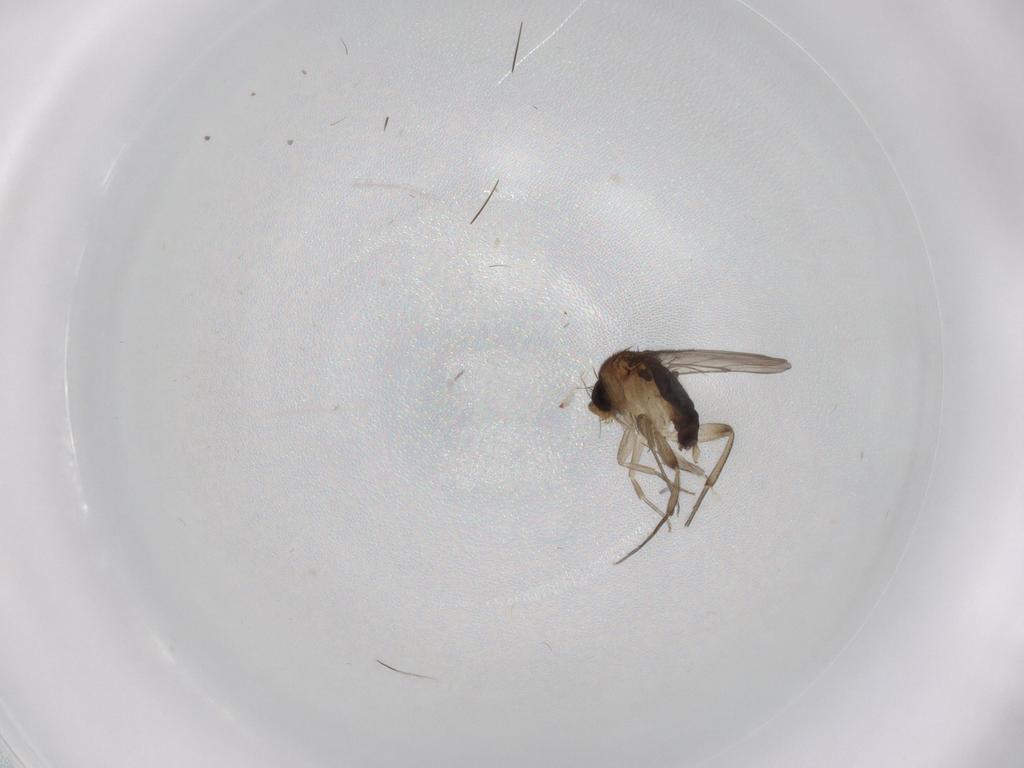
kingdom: Animalia
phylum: Arthropoda
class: Insecta
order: Diptera
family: Phoridae
